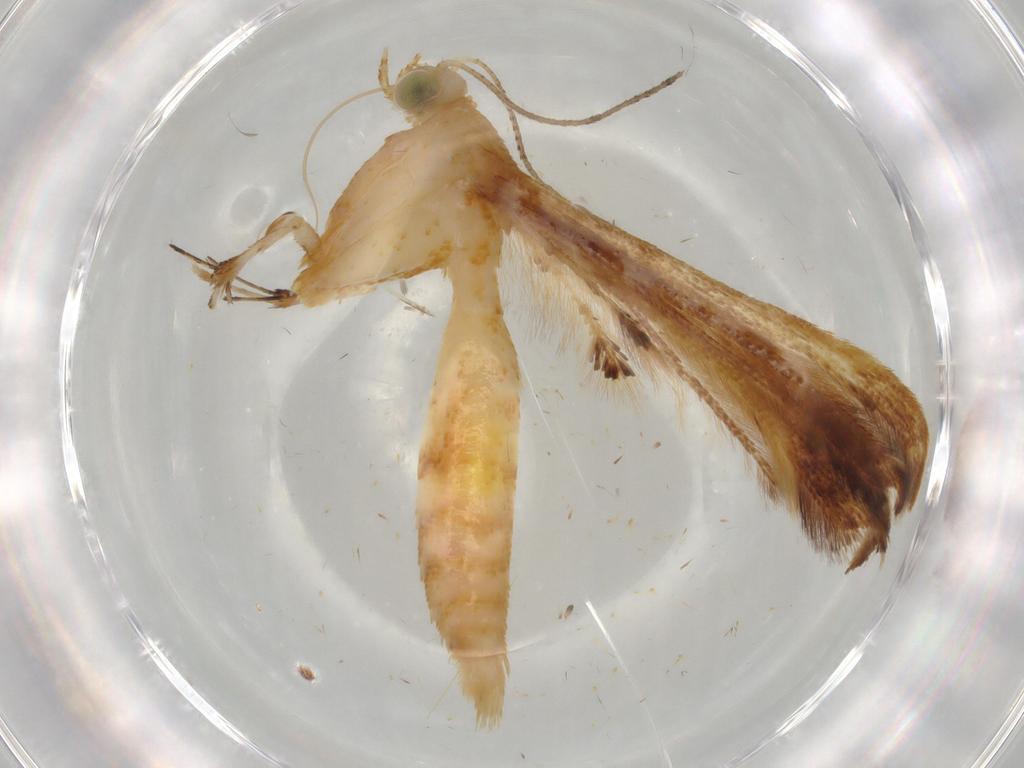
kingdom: Animalia
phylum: Arthropoda
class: Insecta
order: Lepidoptera
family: Pterophoridae
